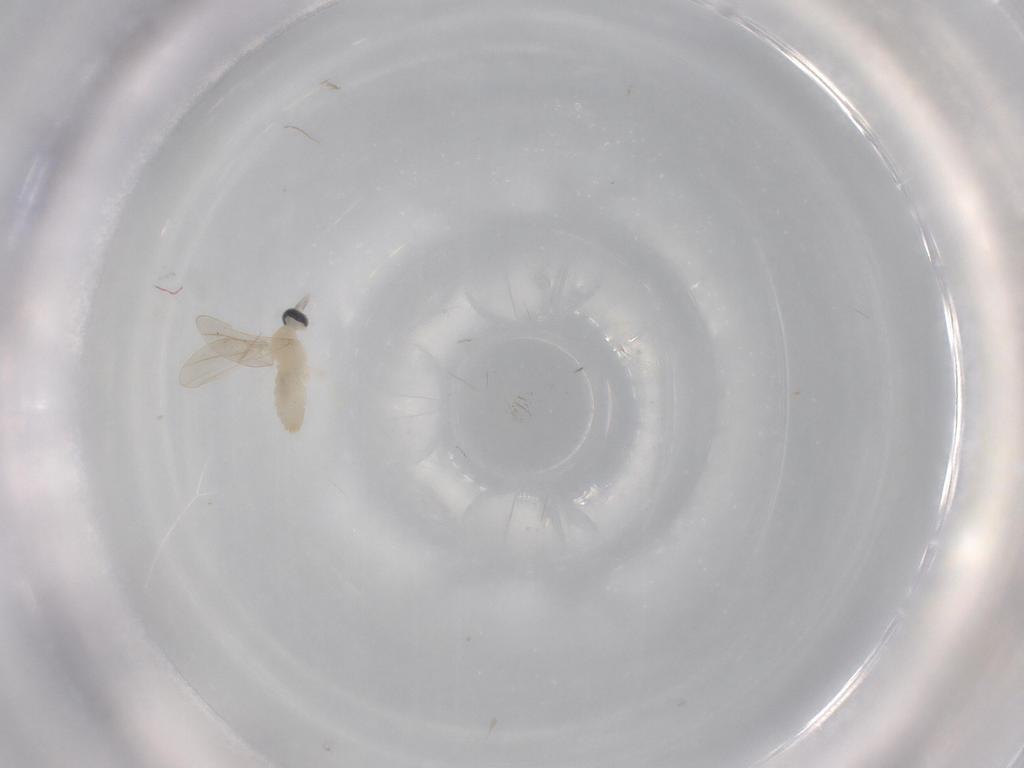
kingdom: Animalia
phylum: Arthropoda
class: Insecta
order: Diptera
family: Cecidomyiidae
